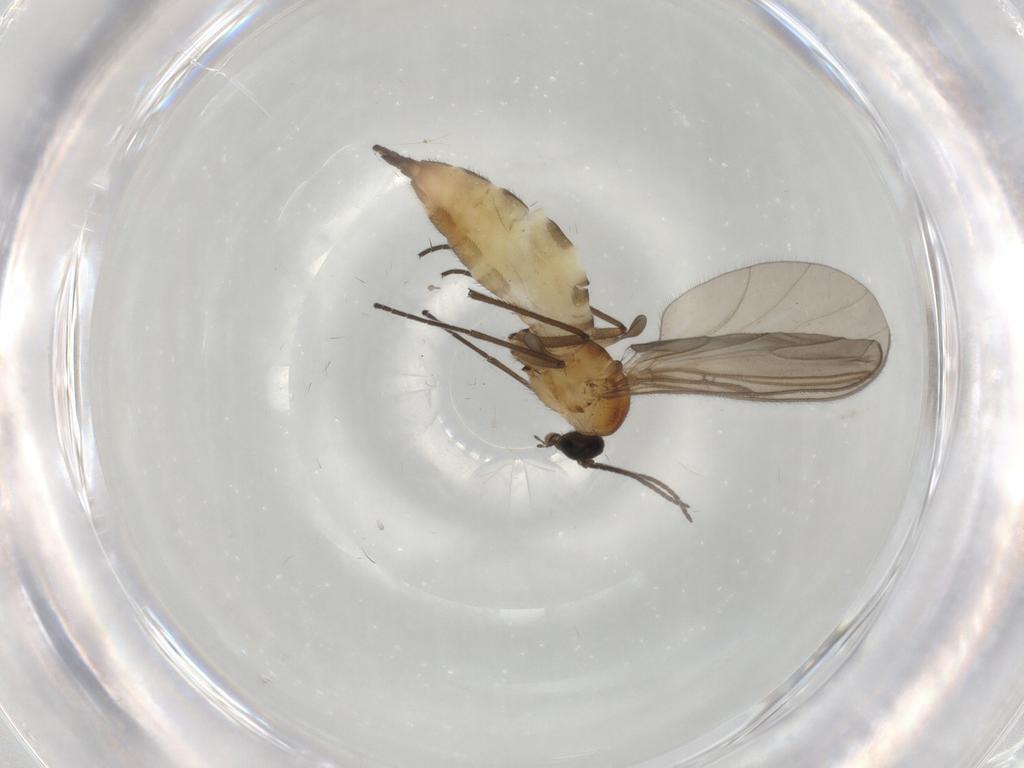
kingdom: Animalia
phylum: Arthropoda
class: Insecta
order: Diptera
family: Sciaridae
